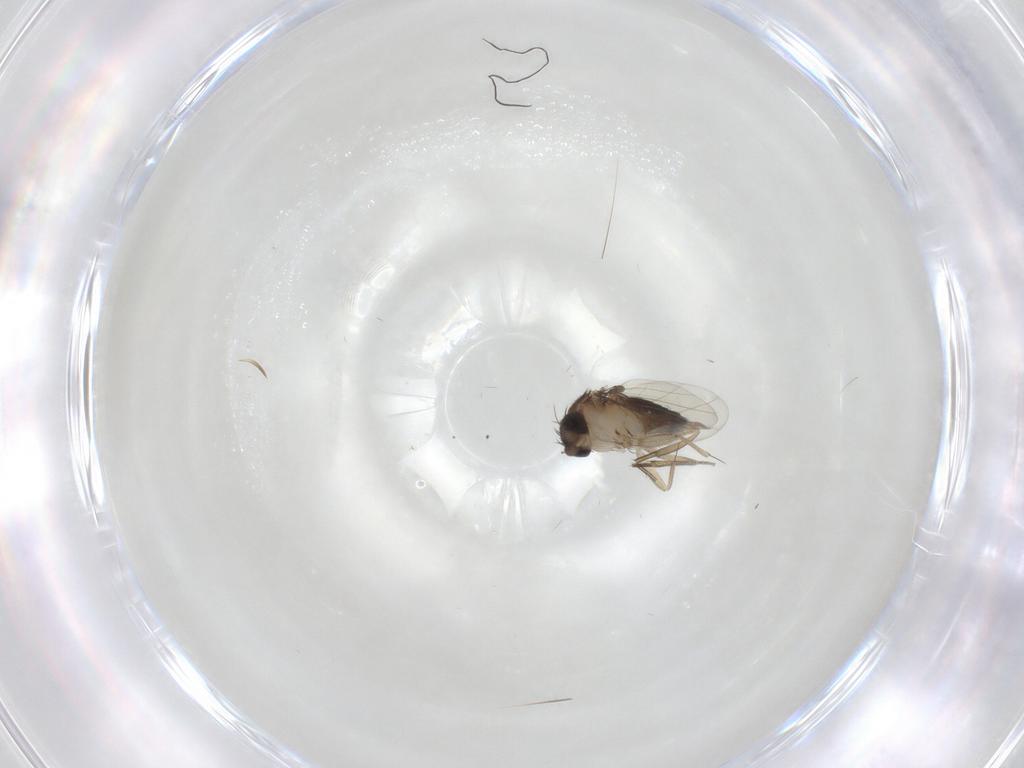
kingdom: Animalia
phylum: Arthropoda
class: Insecta
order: Diptera
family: Phoridae
